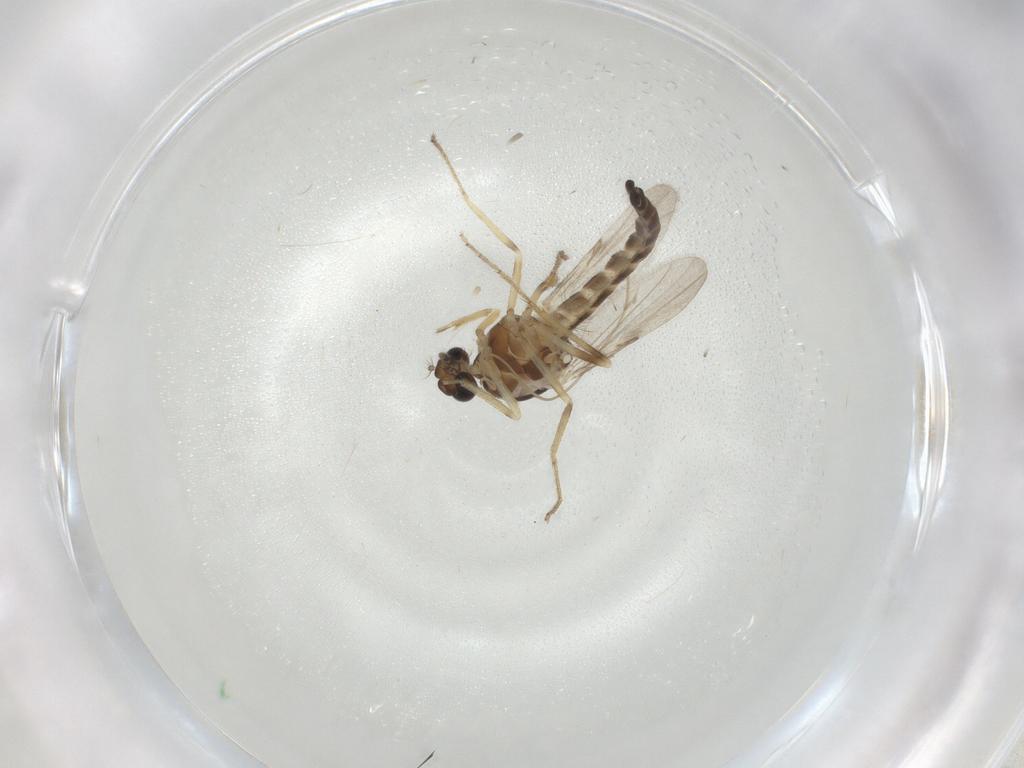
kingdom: Animalia
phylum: Arthropoda
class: Insecta
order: Diptera
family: Ceratopogonidae
